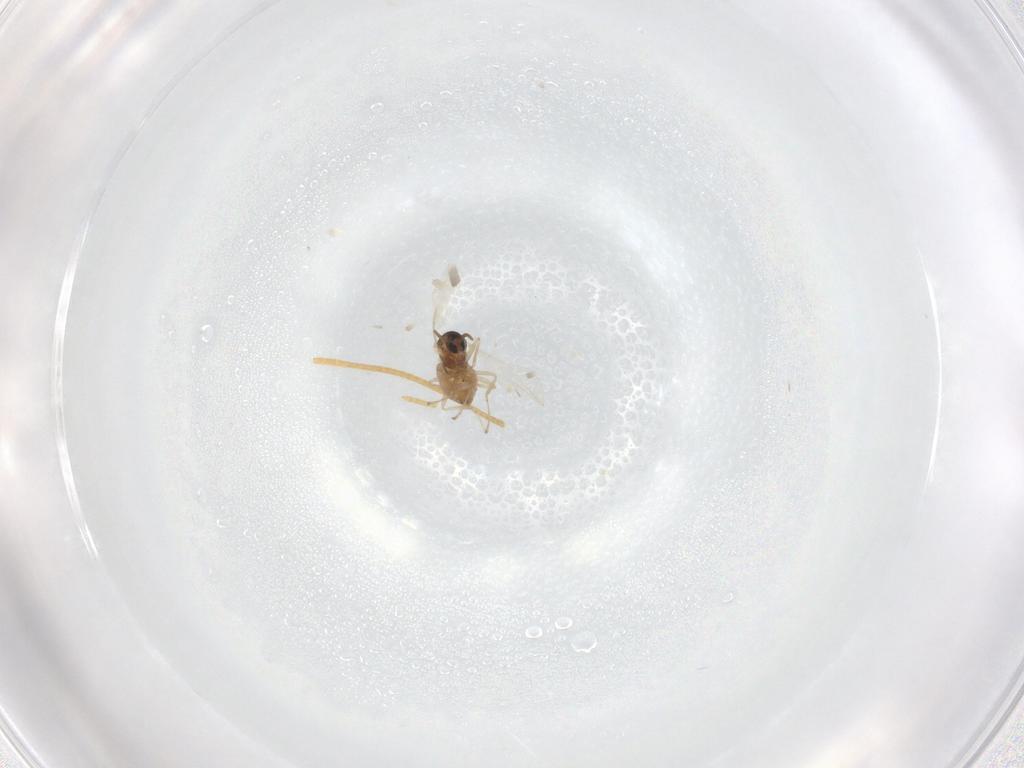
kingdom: Animalia
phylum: Arthropoda
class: Insecta
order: Diptera
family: Cecidomyiidae
